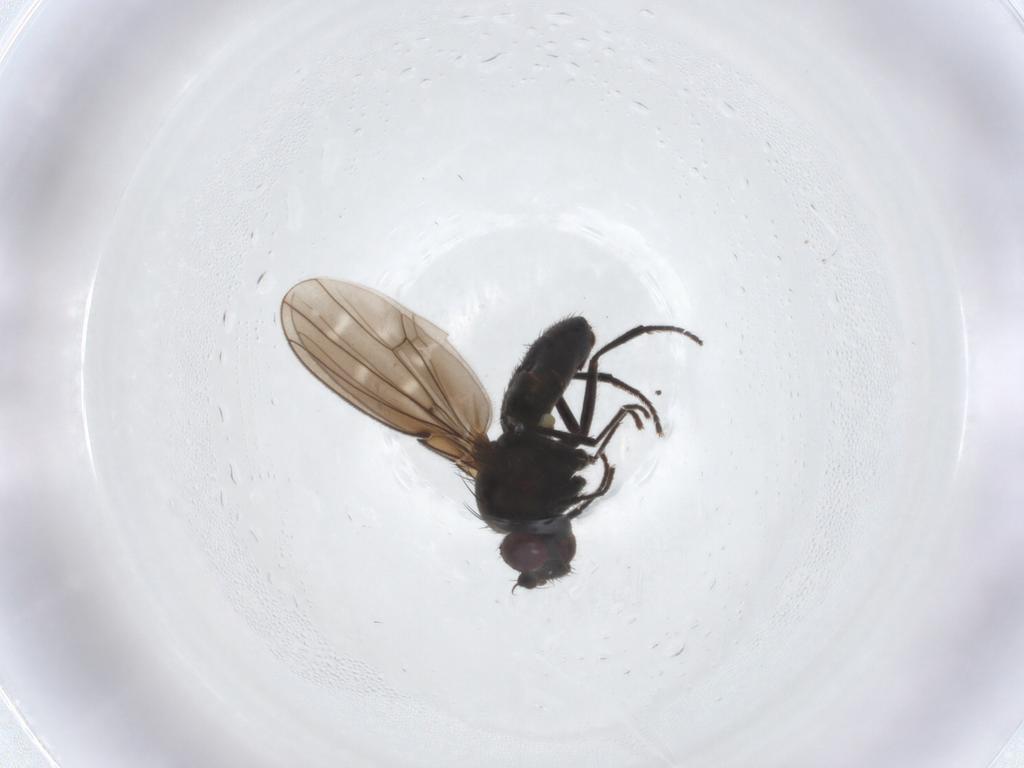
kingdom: Animalia
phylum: Arthropoda
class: Insecta
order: Diptera
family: Ephydridae
